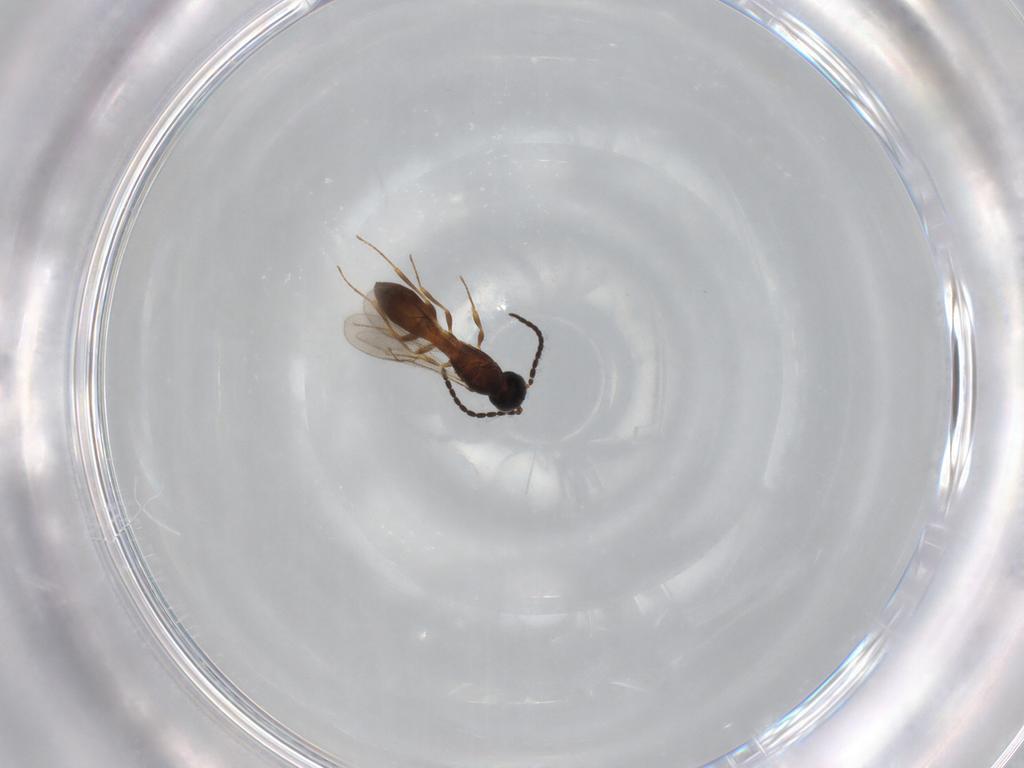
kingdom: Animalia
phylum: Arthropoda
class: Insecta
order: Hymenoptera
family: Scelionidae
